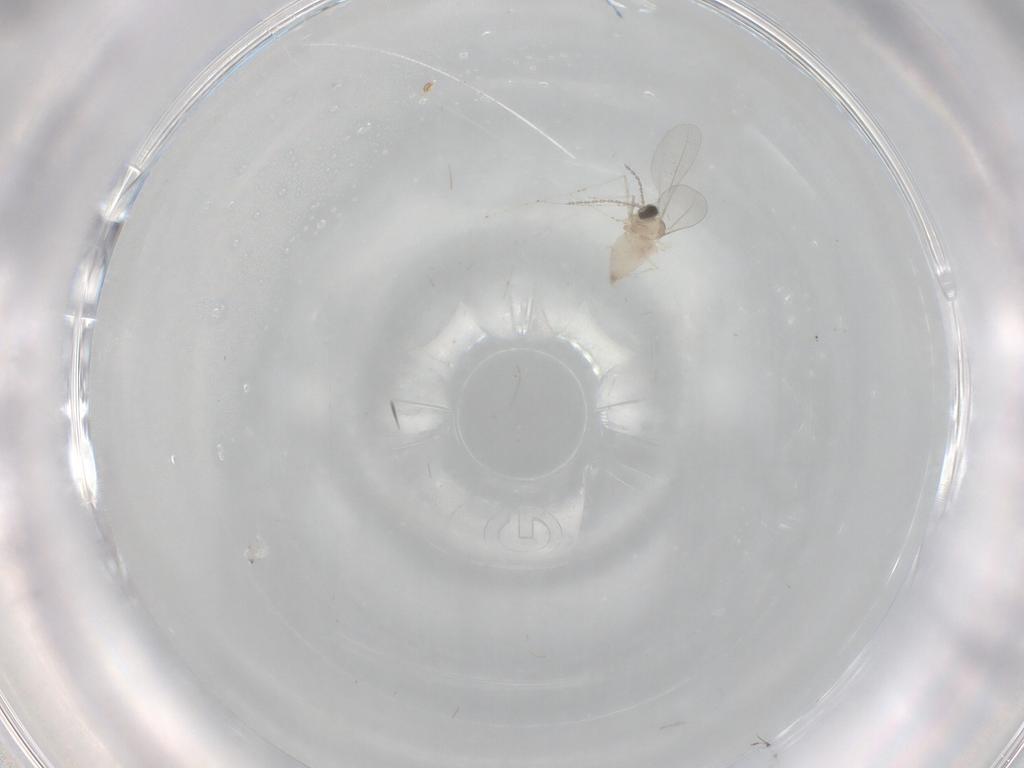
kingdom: Animalia
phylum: Arthropoda
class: Insecta
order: Diptera
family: Cecidomyiidae
